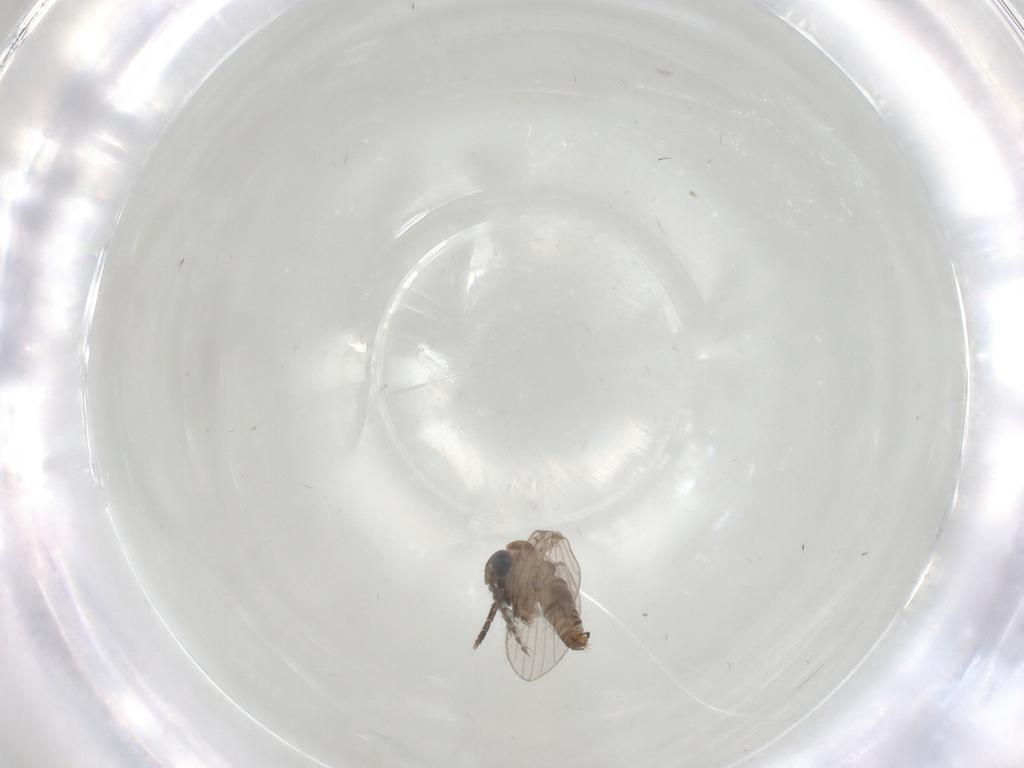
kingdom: Animalia
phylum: Arthropoda
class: Insecta
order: Diptera
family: Psychodidae
